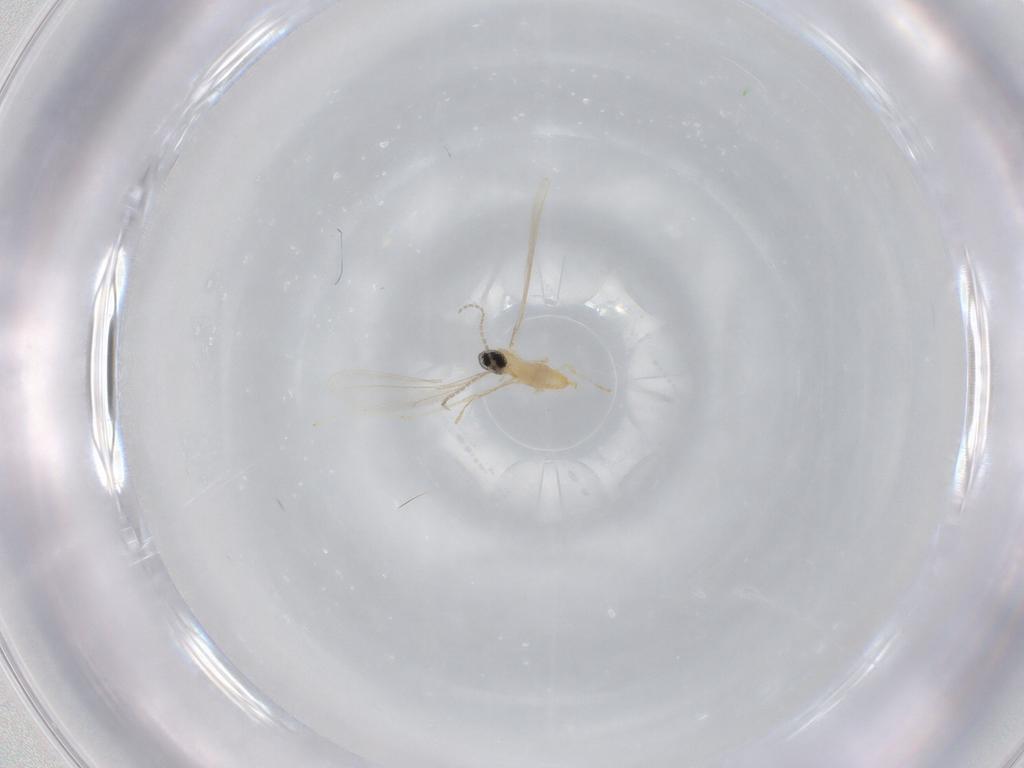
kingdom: Animalia
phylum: Arthropoda
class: Insecta
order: Diptera
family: Cecidomyiidae
